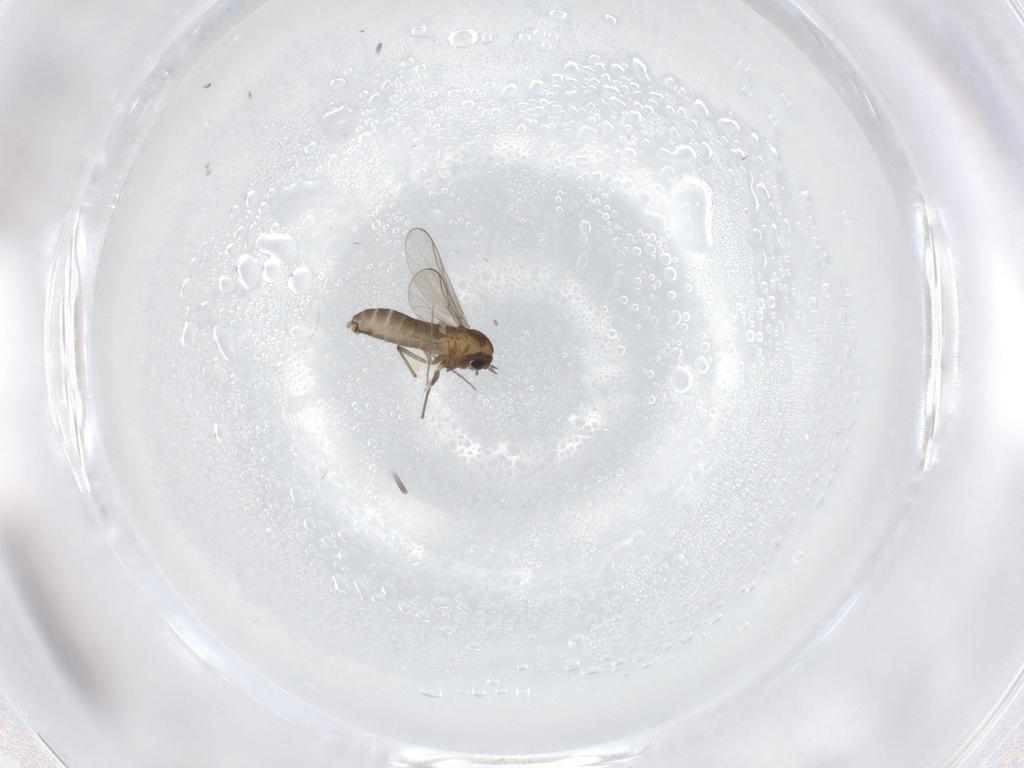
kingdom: Animalia
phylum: Arthropoda
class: Insecta
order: Diptera
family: Chironomidae
